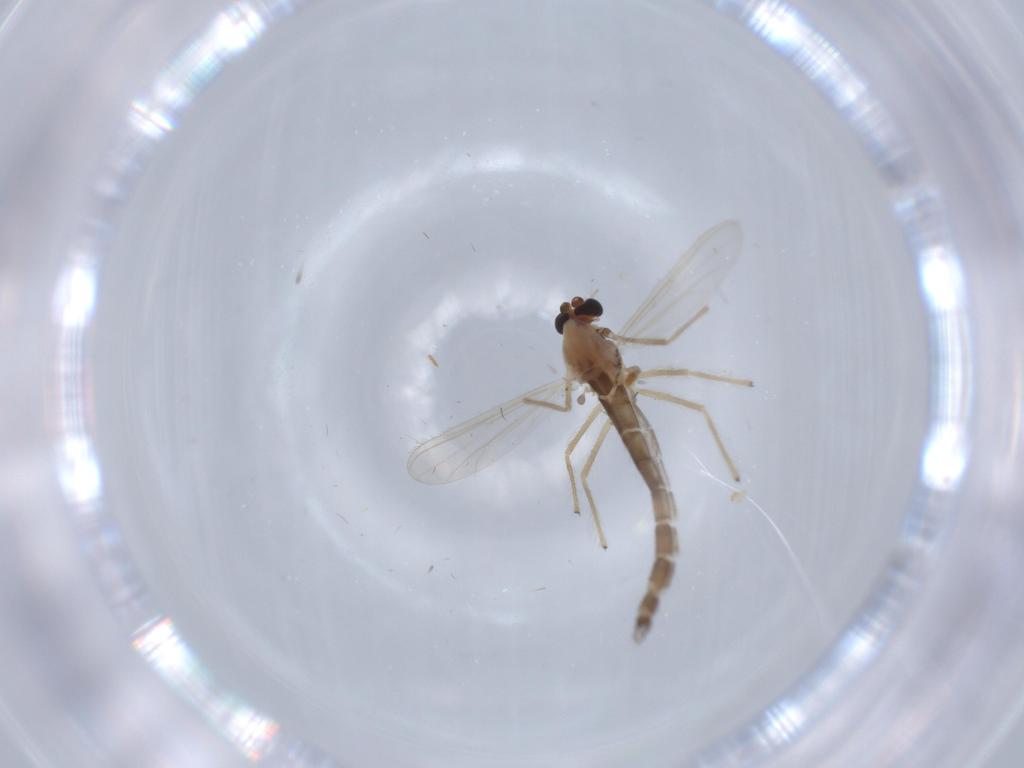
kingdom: Animalia
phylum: Arthropoda
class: Insecta
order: Diptera
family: Chironomidae
